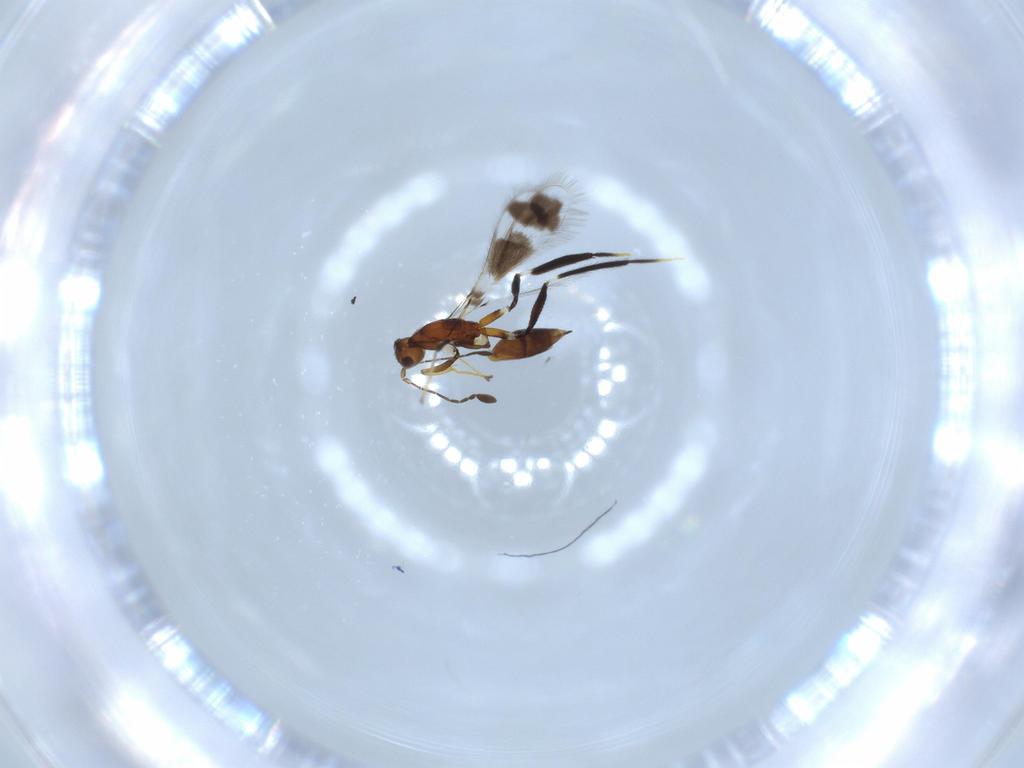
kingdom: Animalia
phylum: Arthropoda
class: Insecta
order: Hymenoptera
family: Mymaridae
